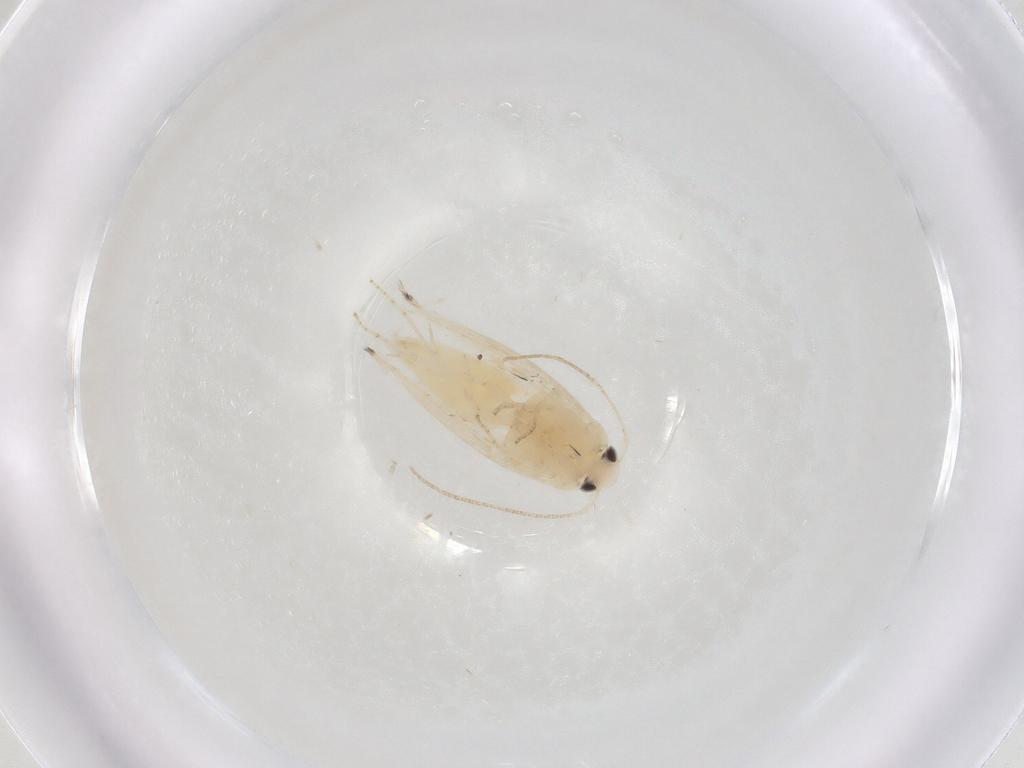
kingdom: Animalia
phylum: Arthropoda
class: Insecta
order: Lepidoptera
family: Gracillariidae
